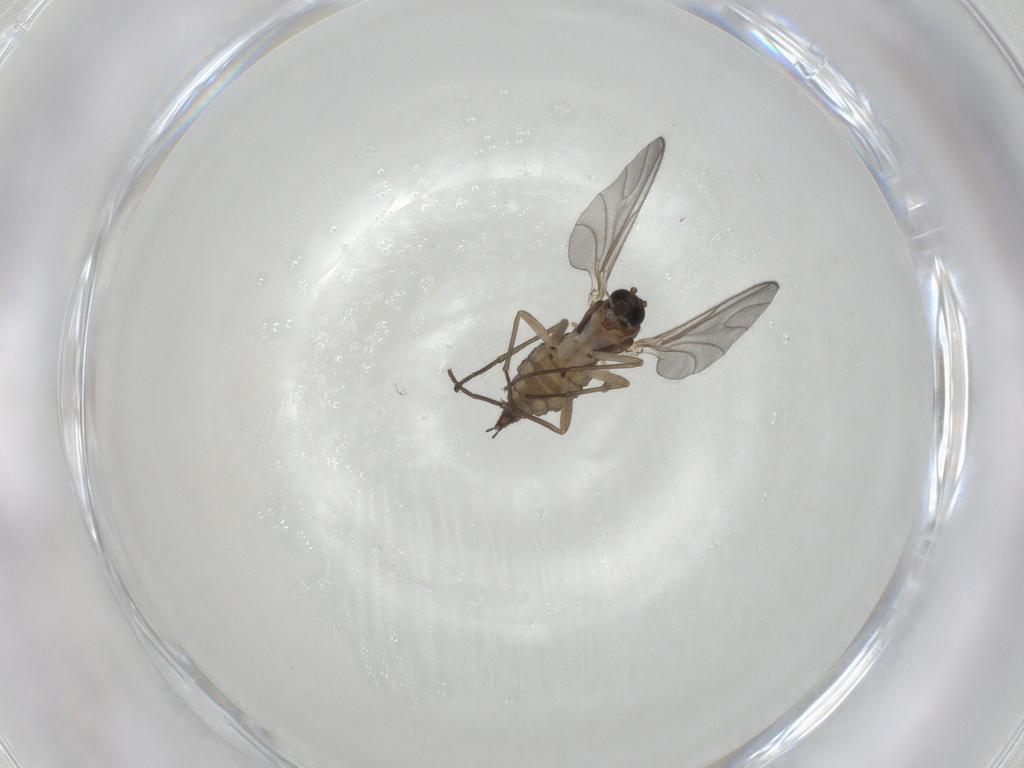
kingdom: Animalia
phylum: Arthropoda
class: Insecta
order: Diptera
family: Sciaridae
